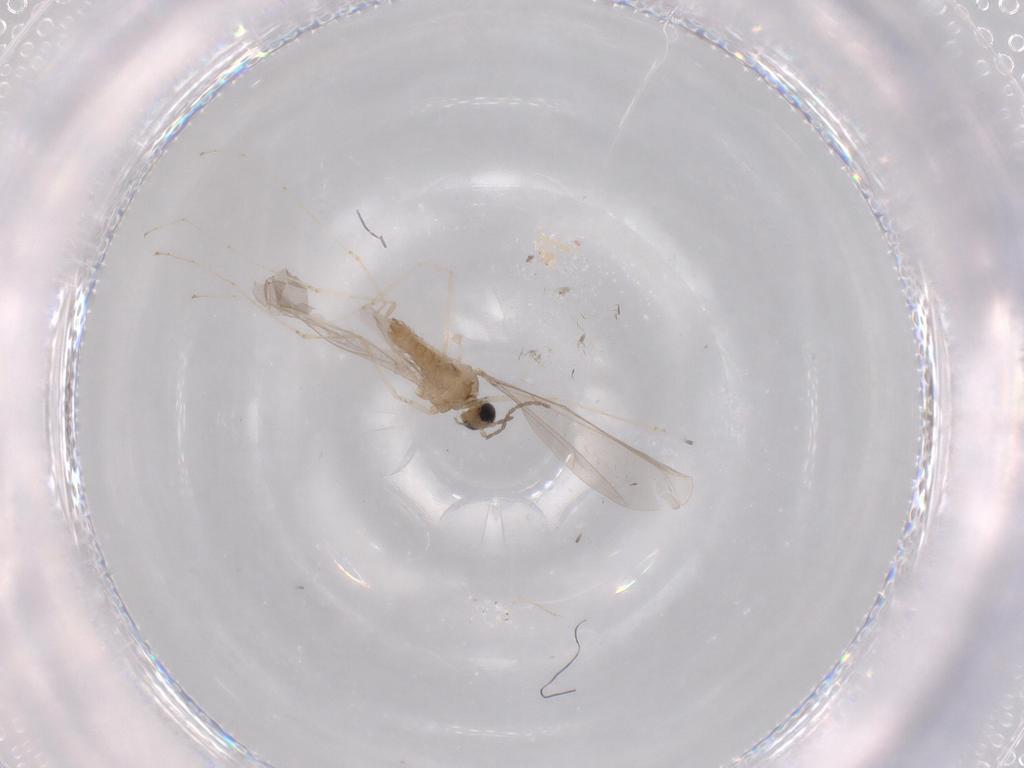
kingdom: Animalia
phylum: Arthropoda
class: Insecta
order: Diptera
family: Cecidomyiidae
